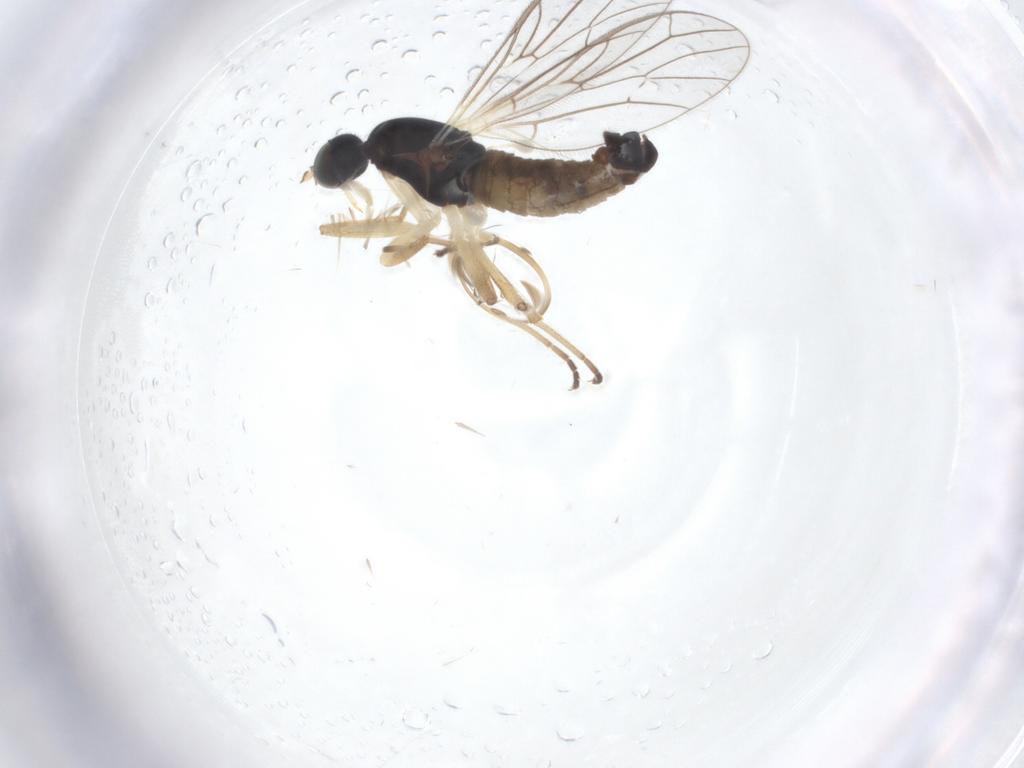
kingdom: Animalia
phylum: Arthropoda
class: Insecta
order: Diptera
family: Empididae
